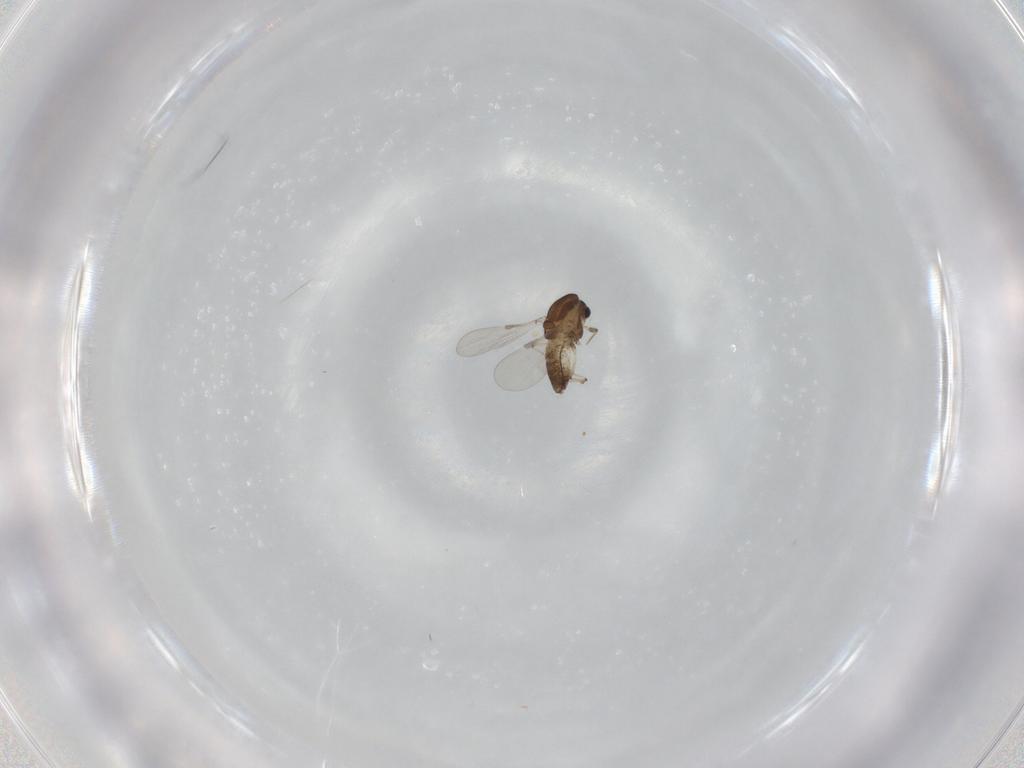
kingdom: Animalia
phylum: Arthropoda
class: Insecta
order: Diptera
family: Chironomidae
